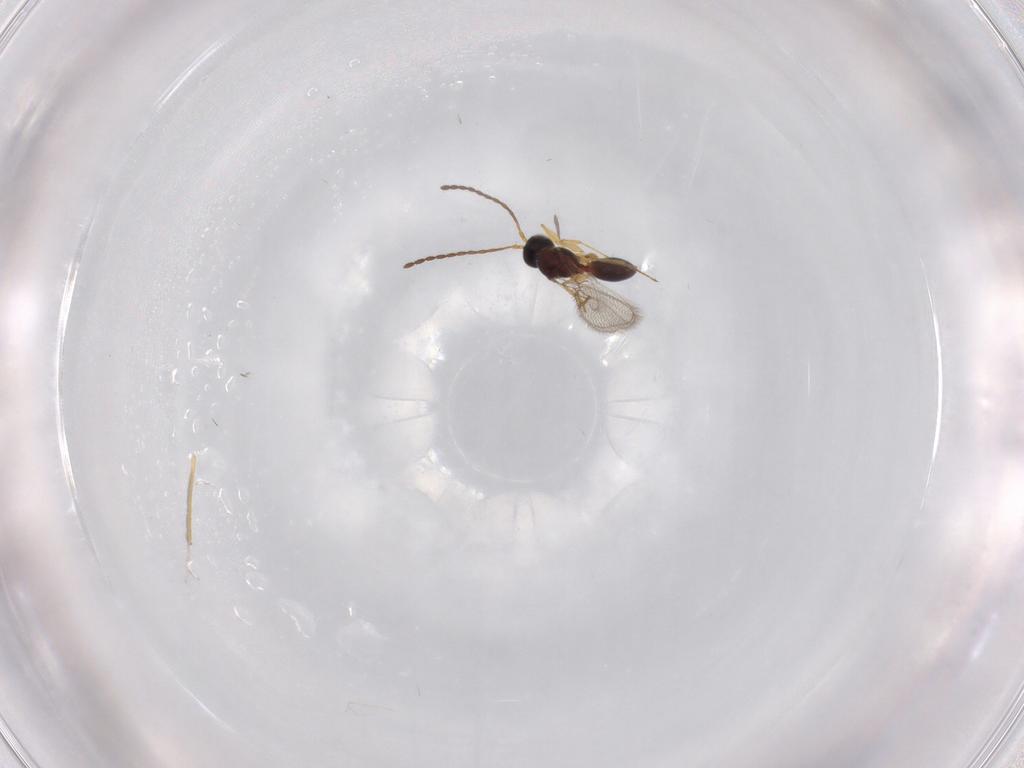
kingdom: Animalia
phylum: Arthropoda
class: Insecta
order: Hymenoptera
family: Figitidae
